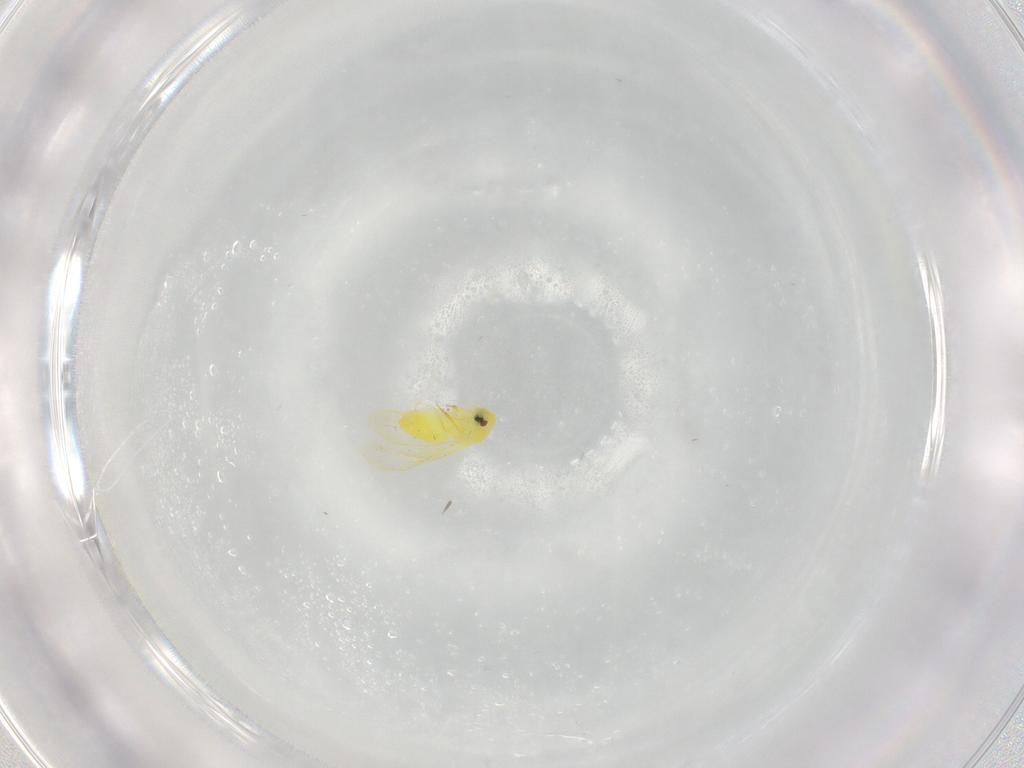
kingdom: Animalia
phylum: Arthropoda
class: Insecta
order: Hemiptera
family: Aleyrodidae
